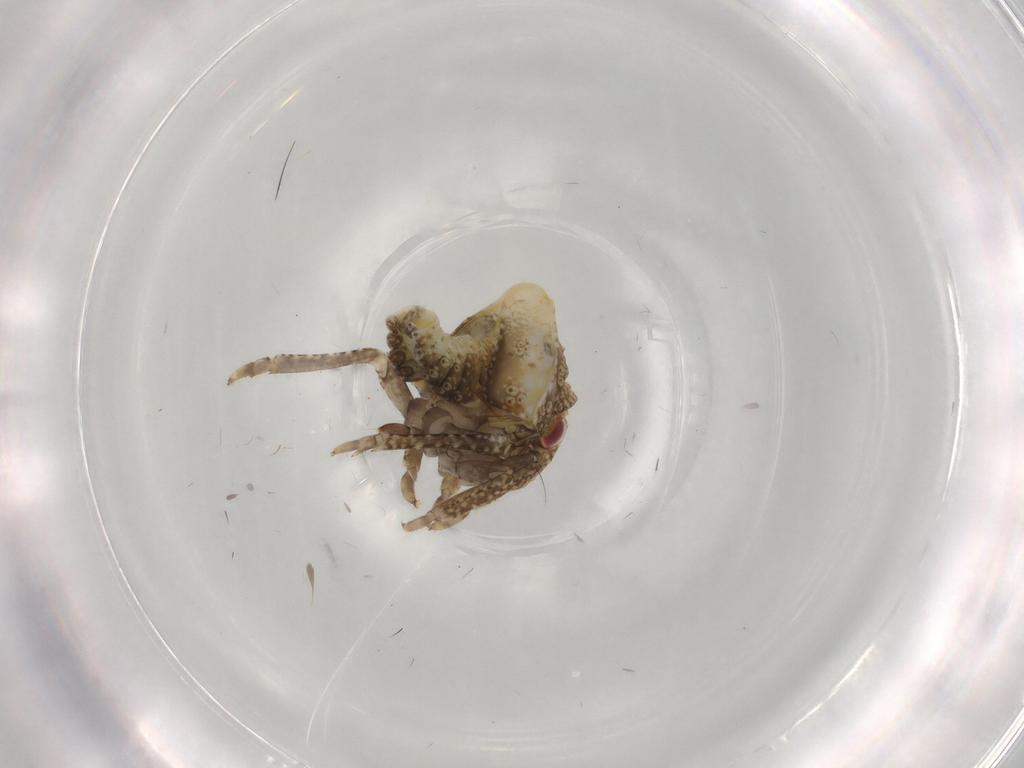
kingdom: Animalia
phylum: Arthropoda
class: Insecta
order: Hemiptera
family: Acanaloniidae
